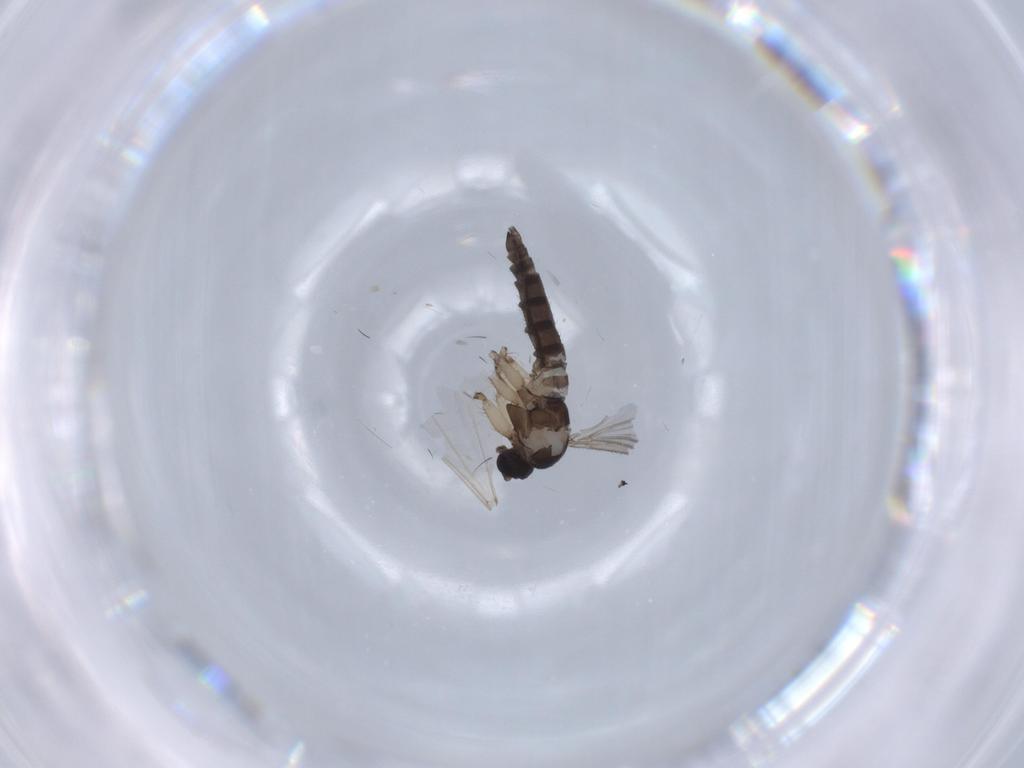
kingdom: Animalia
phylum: Arthropoda
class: Insecta
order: Diptera
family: Dolichopodidae
